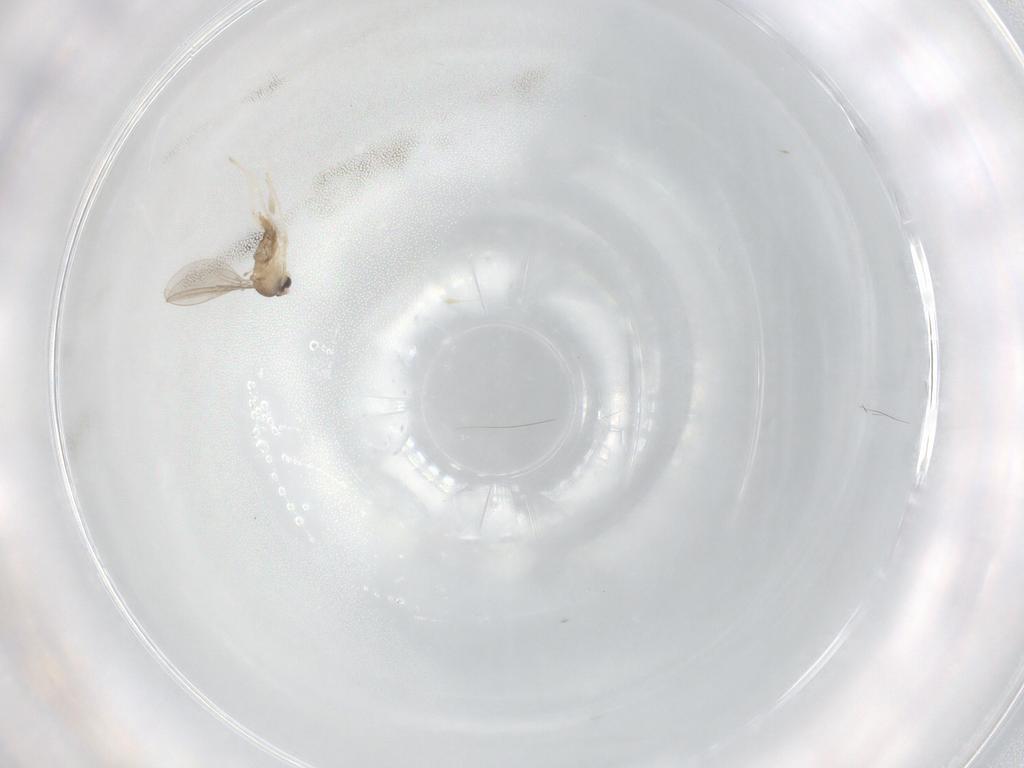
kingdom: Animalia
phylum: Arthropoda
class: Insecta
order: Diptera
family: Cecidomyiidae
